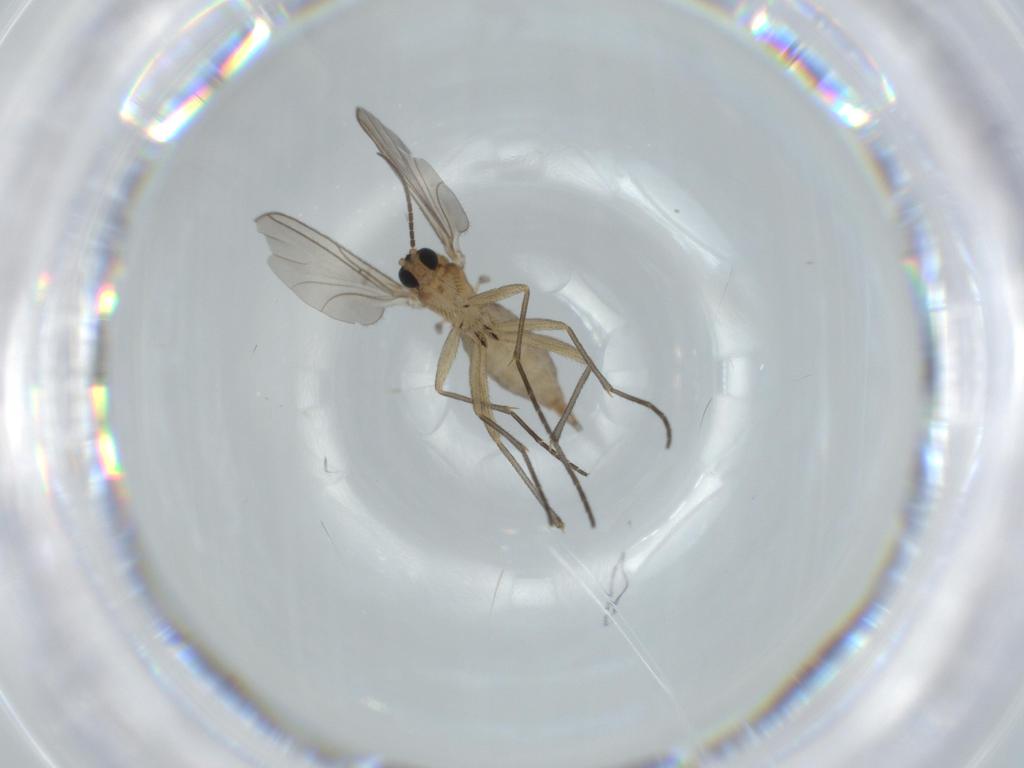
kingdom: Animalia
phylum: Arthropoda
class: Insecta
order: Diptera
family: Sciaridae
